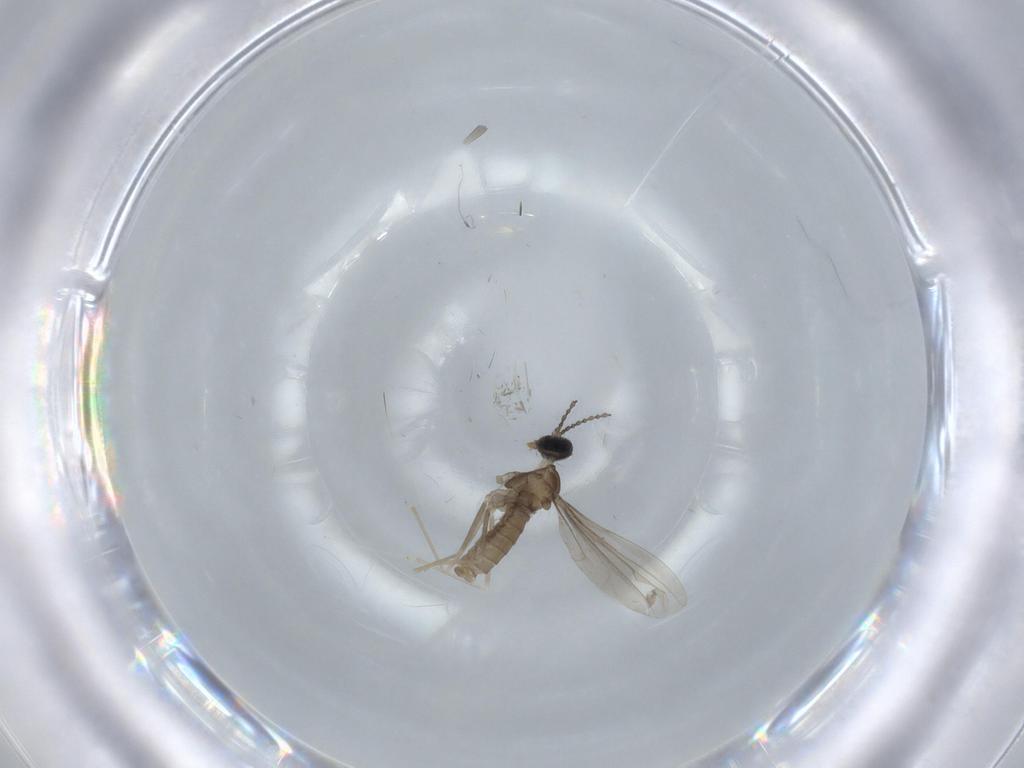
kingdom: Animalia
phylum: Arthropoda
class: Insecta
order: Diptera
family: Cecidomyiidae
